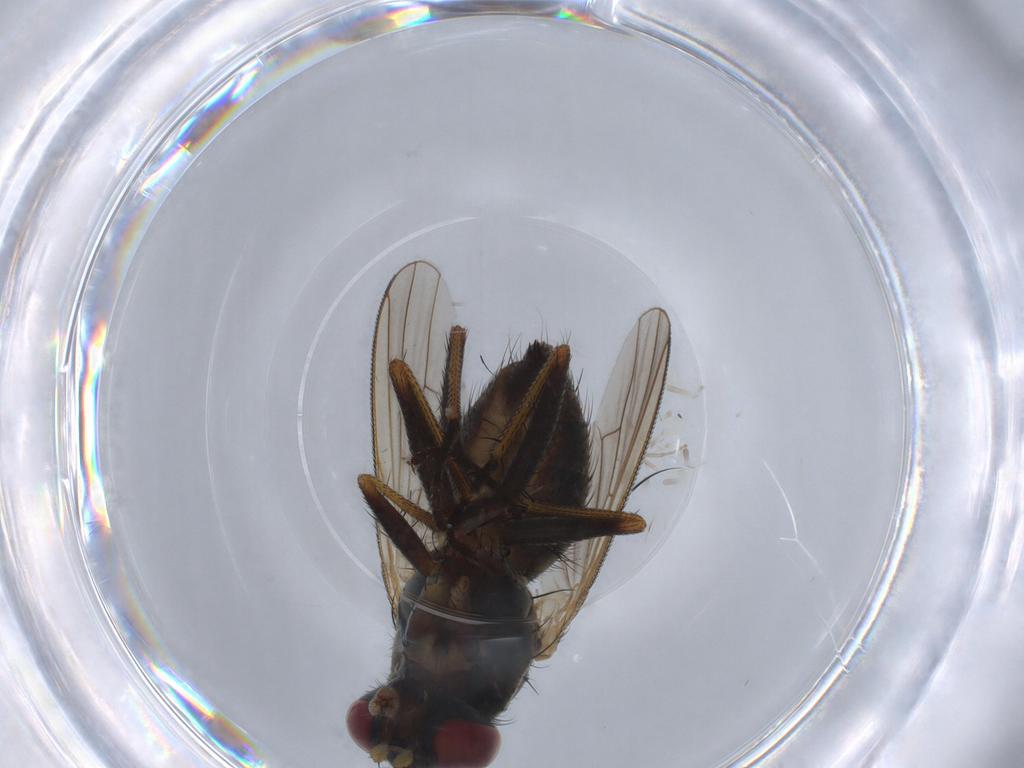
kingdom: Animalia
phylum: Arthropoda
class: Insecta
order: Diptera
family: Muscidae
